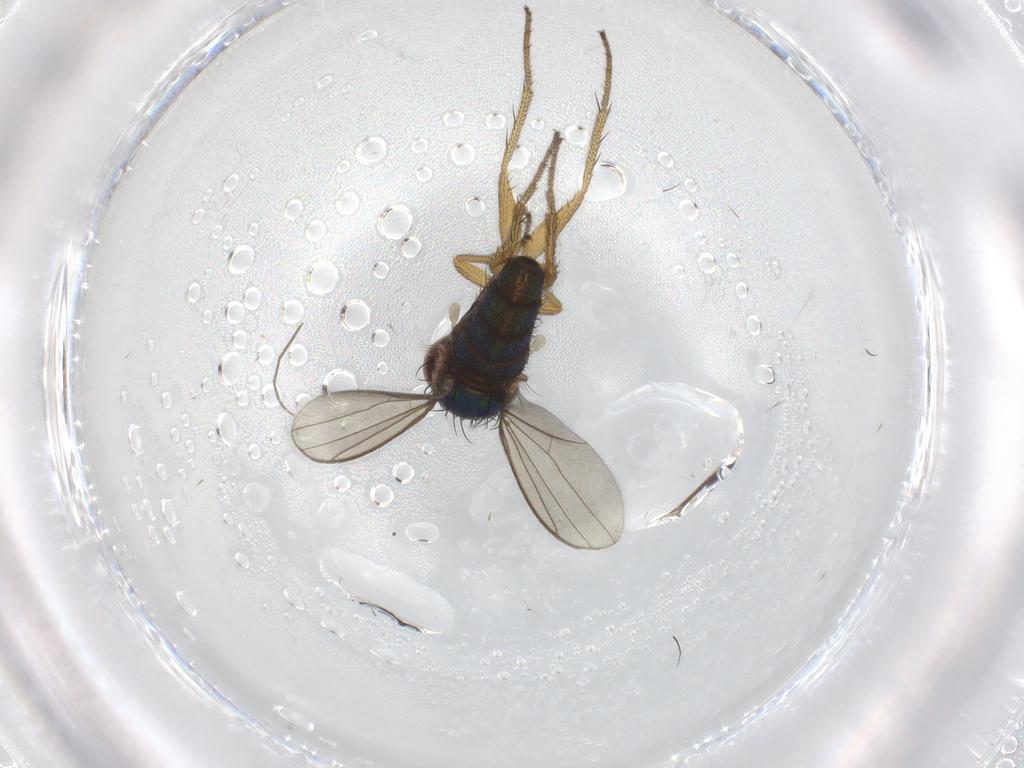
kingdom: Animalia
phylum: Arthropoda
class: Insecta
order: Diptera
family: Chironomidae
